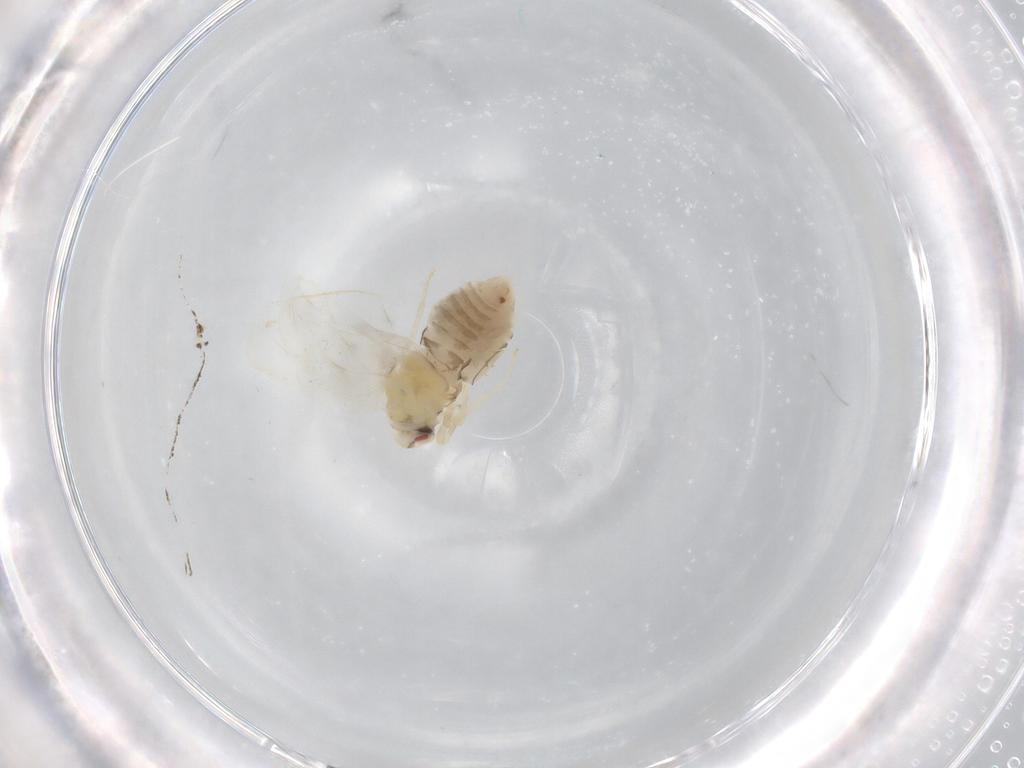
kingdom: Animalia
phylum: Arthropoda
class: Insecta
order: Hemiptera
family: Aleyrodidae
